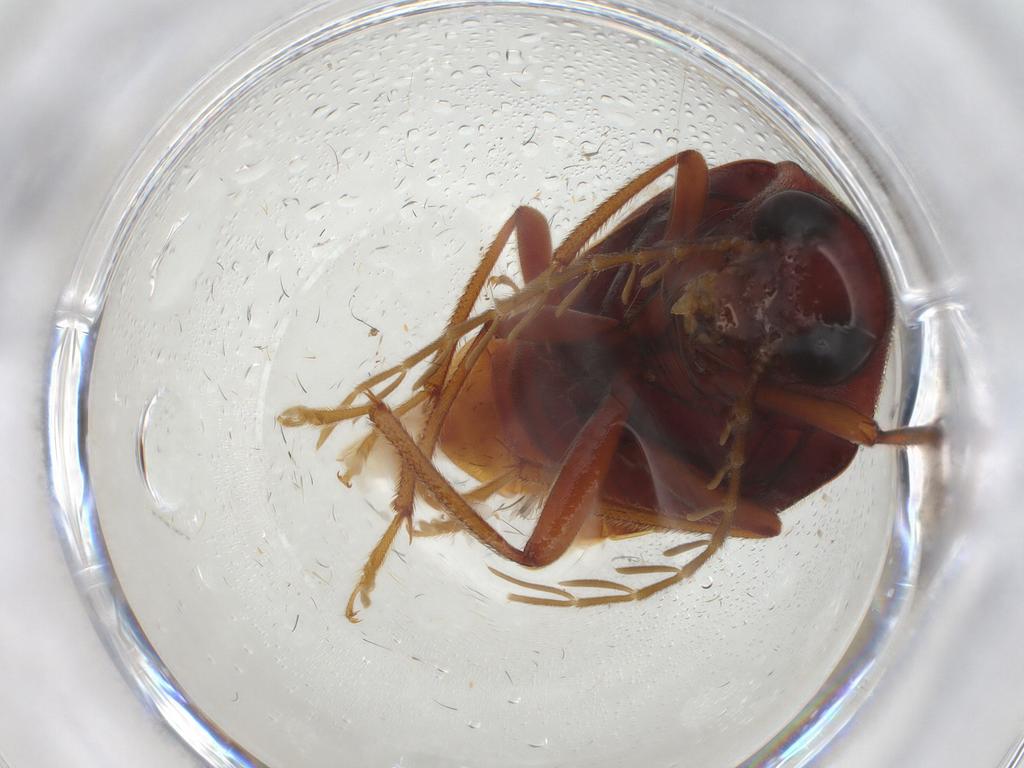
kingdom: Animalia
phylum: Arthropoda
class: Insecta
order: Coleoptera
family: Ptilodactylidae
